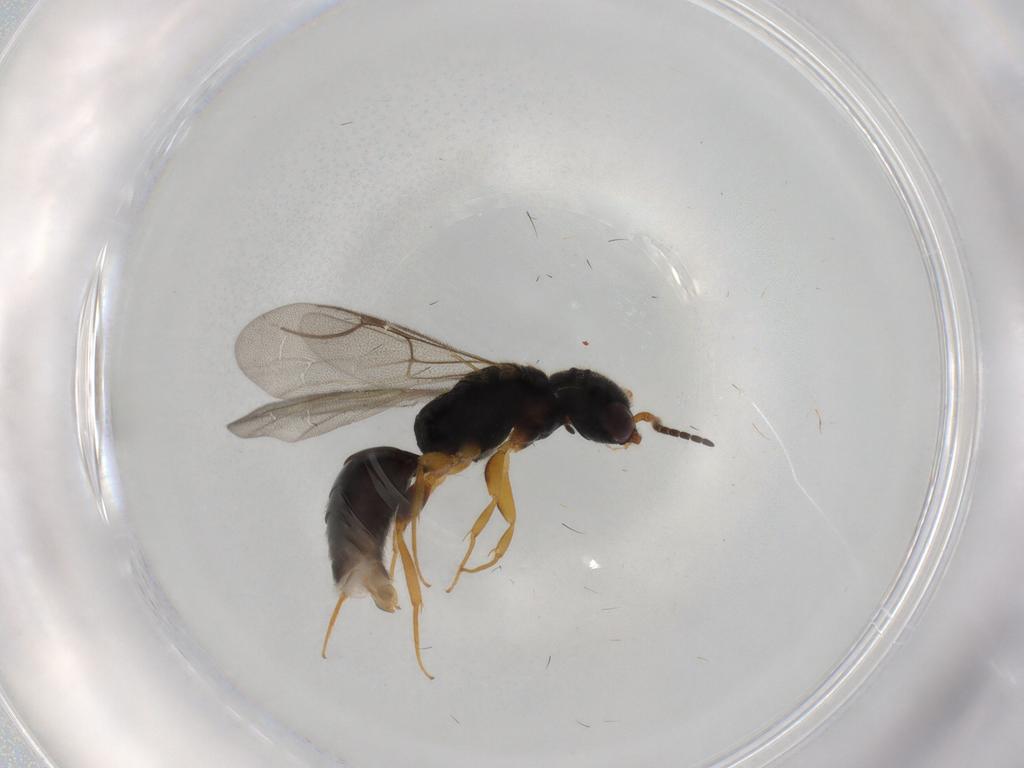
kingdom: Animalia
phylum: Arthropoda
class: Insecta
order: Hymenoptera
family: Bethylidae
